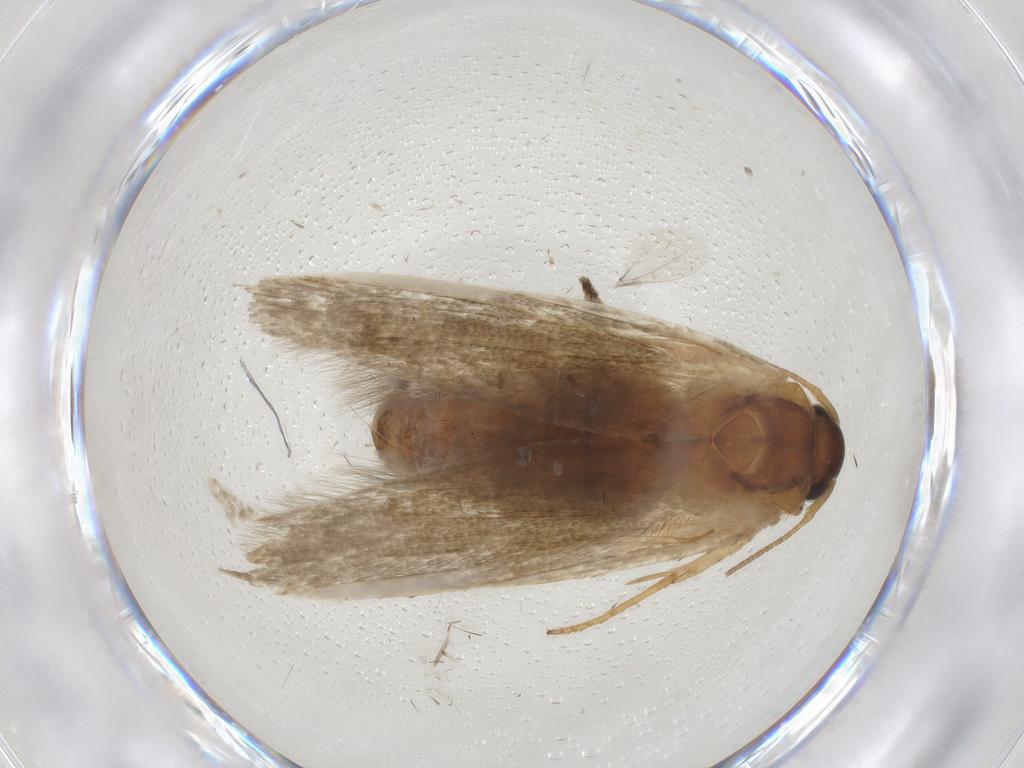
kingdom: Animalia
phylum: Arthropoda
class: Insecta
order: Lepidoptera
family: Blastobasidae
